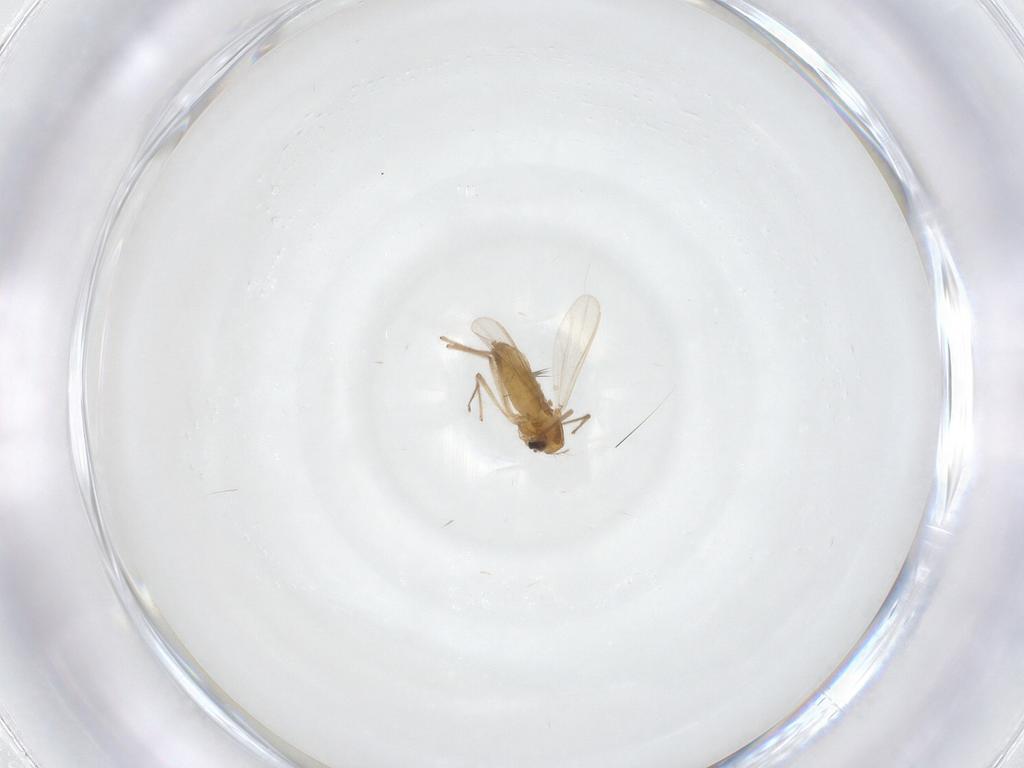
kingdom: Animalia
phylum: Arthropoda
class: Insecta
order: Diptera
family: Chironomidae
